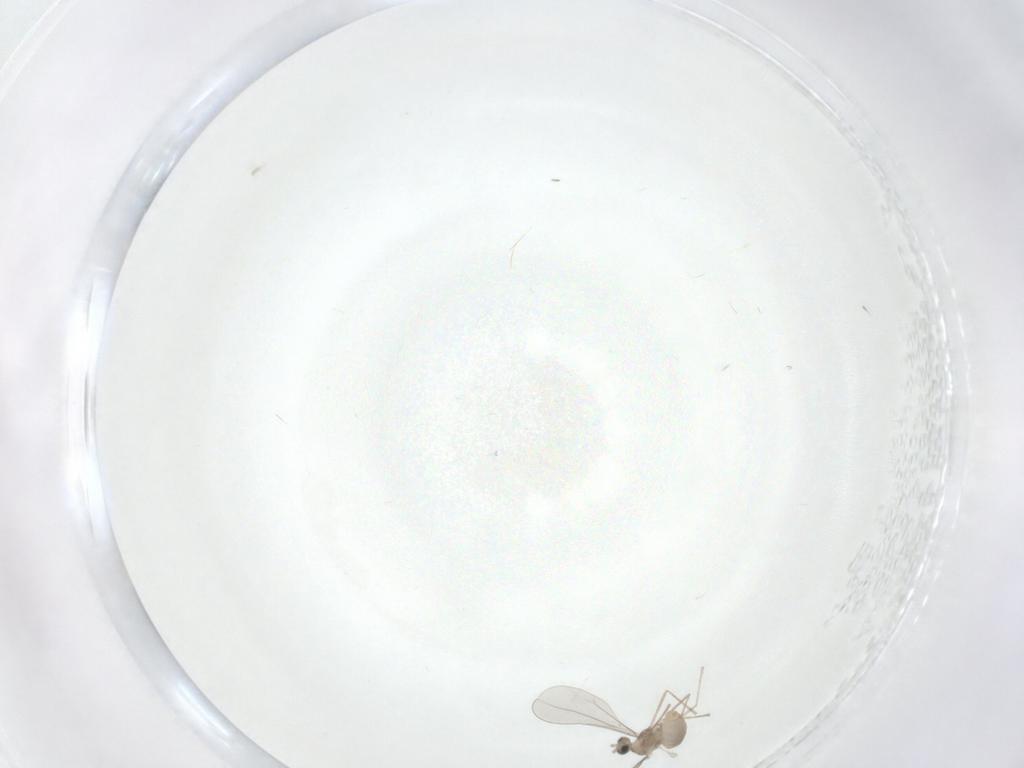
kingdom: Animalia
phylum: Arthropoda
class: Insecta
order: Diptera
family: Chironomidae
